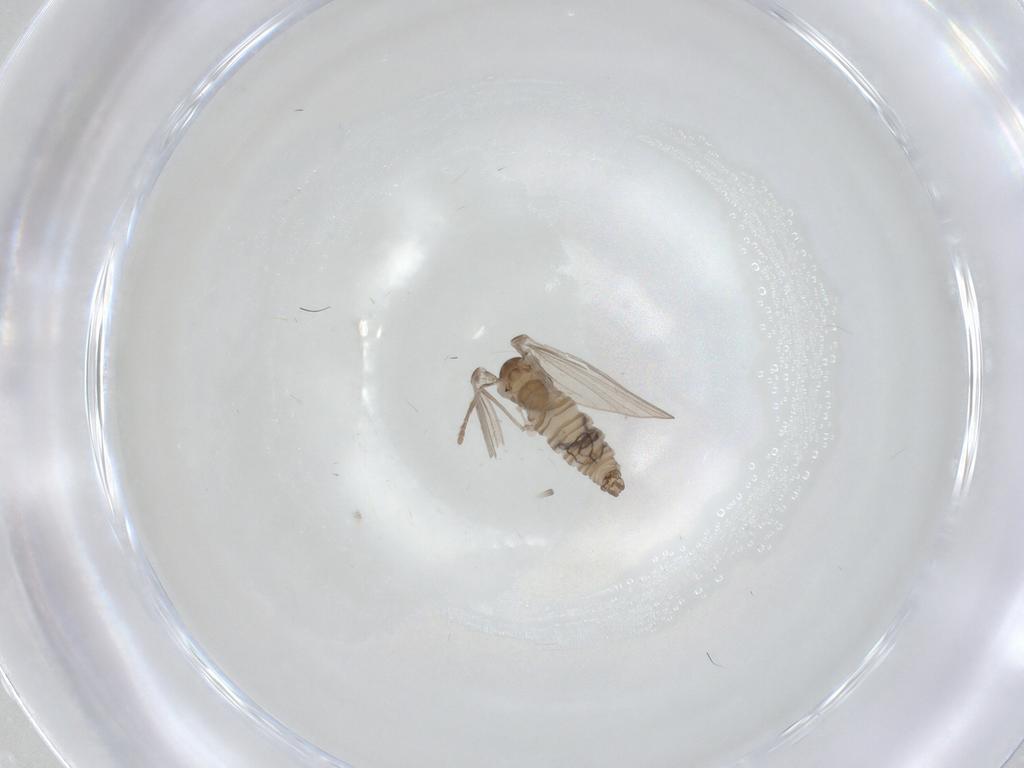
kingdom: Animalia
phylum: Arthropoda
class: Insecta
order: Diptera
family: Psychodidae
